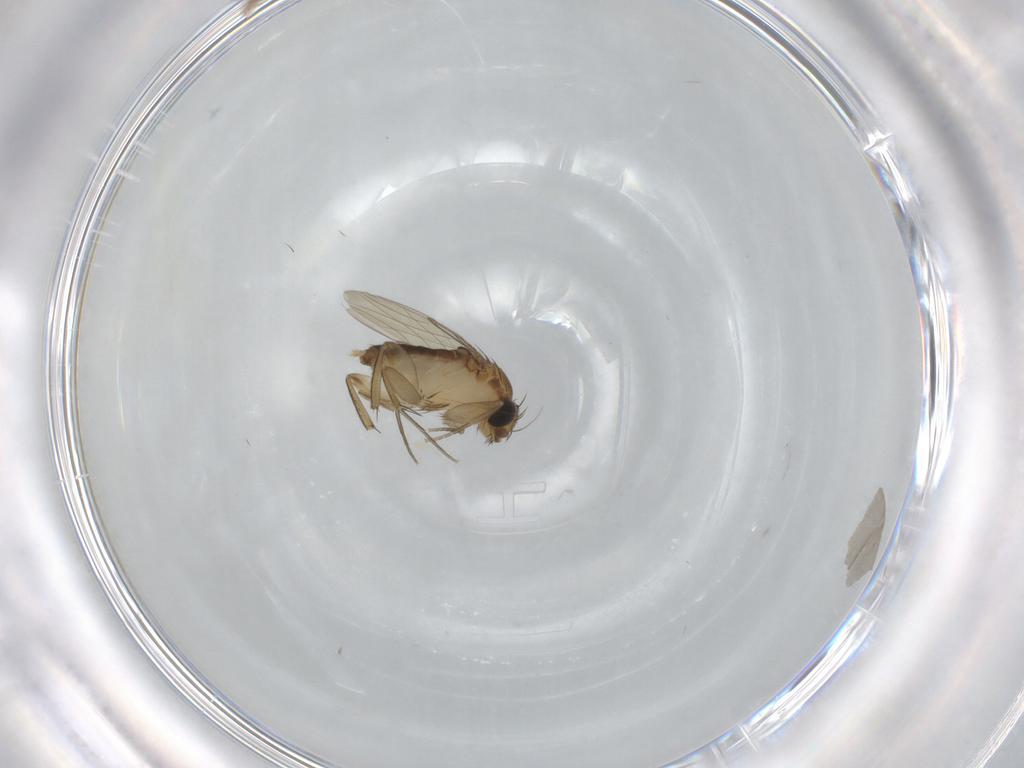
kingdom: Animalia
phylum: Arthropoda
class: Insecta
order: Diptera
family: Phoridae
